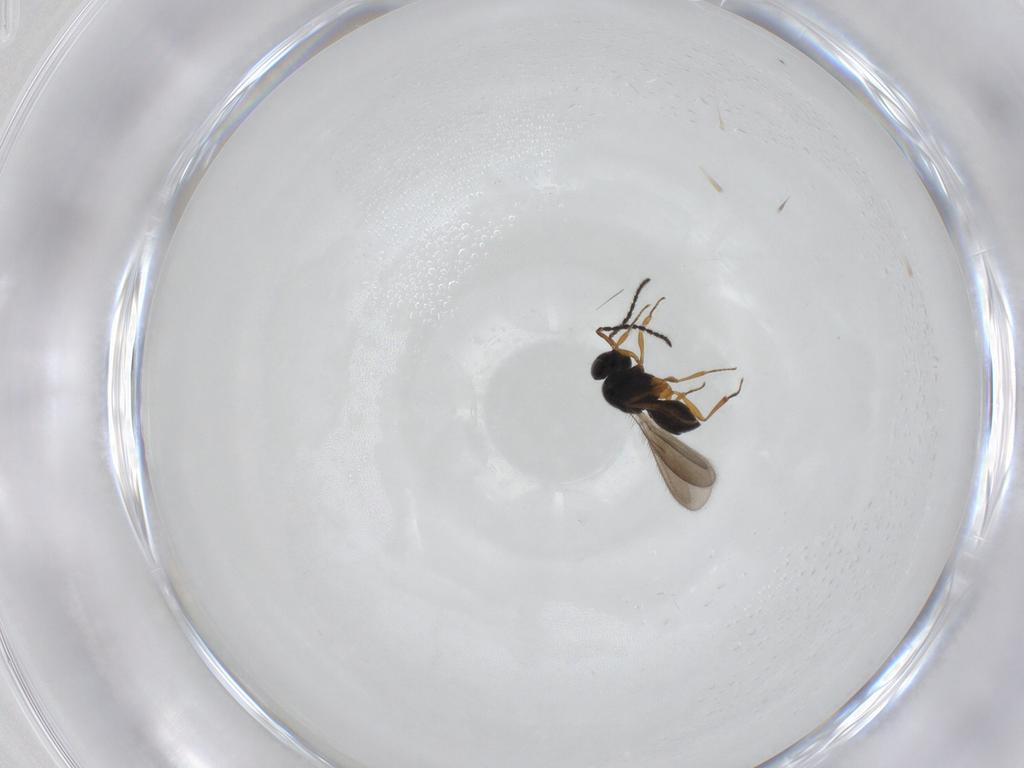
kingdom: Animalia
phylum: Arthropoda
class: Insecta
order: Hymenoptera
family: Scelionidae
